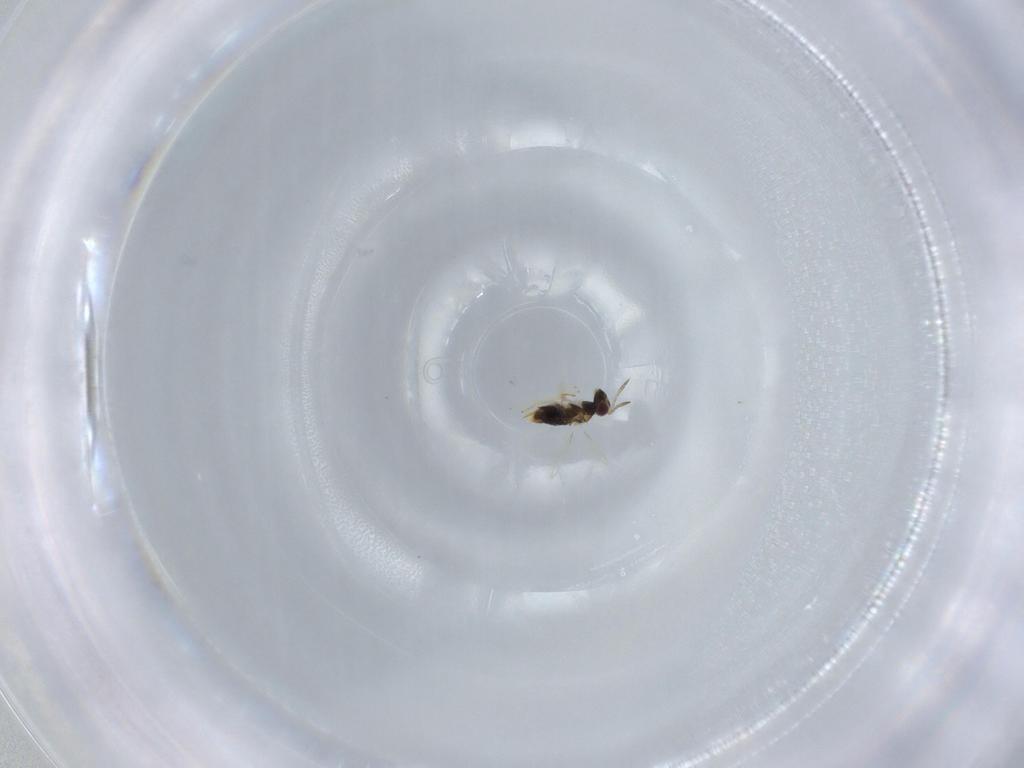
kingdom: Animalia
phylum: Arthropoda
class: Insecta
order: Hymenoptera
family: Aphelinidae
